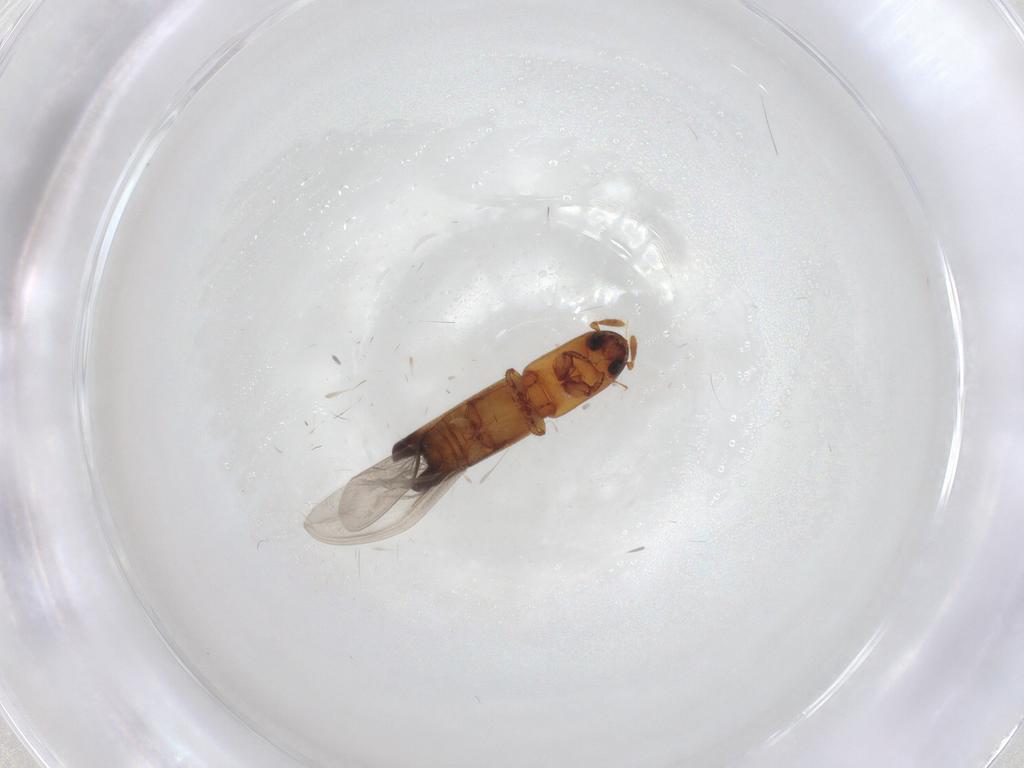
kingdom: Animalia
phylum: Arthropoda
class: Insecta
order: Coleoptera
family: Curculionidae
